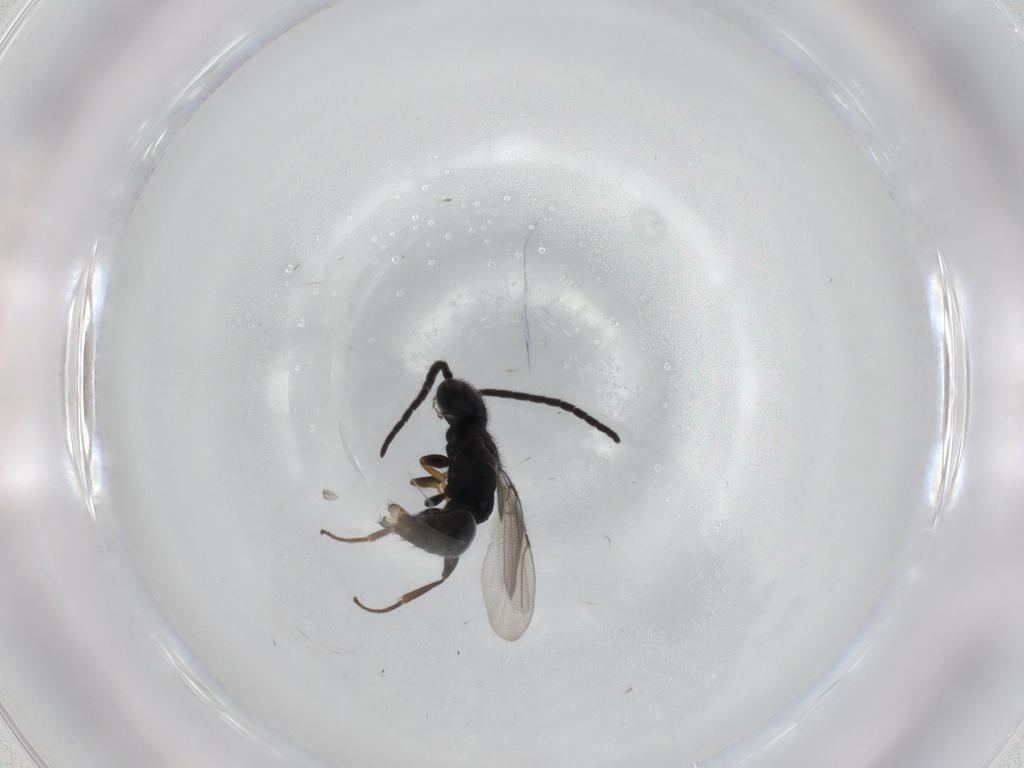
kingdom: Animalia
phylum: Arthropoda
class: Insecta
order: Hymenoptera
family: Bethylidae
